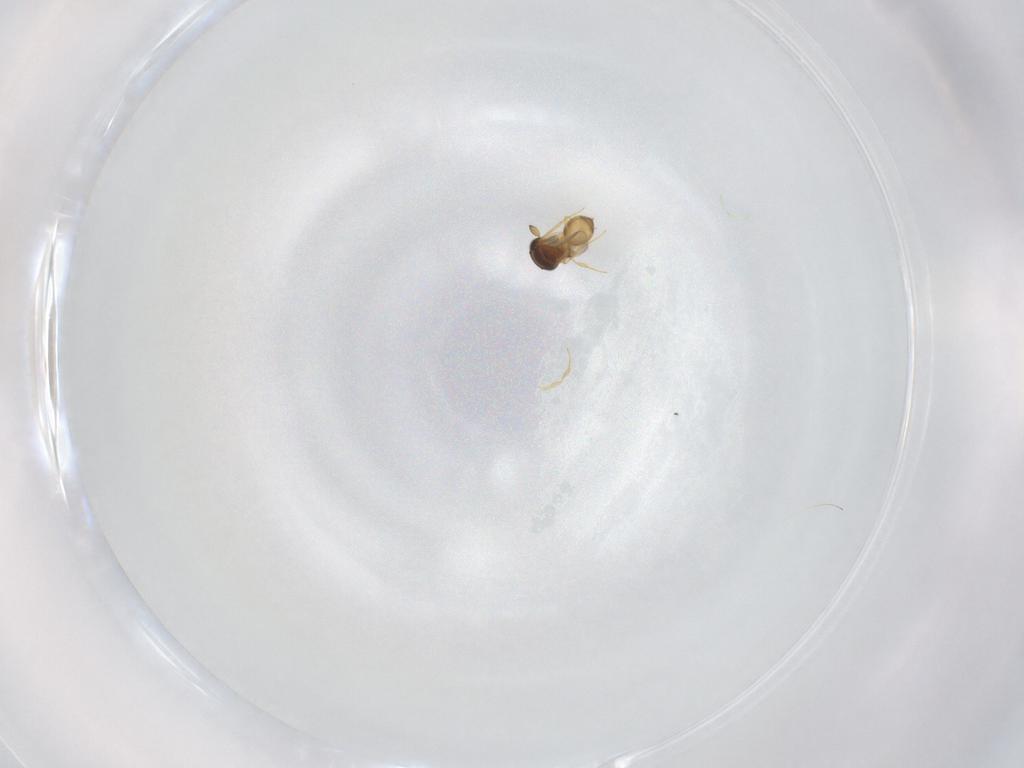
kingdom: Animalia
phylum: Arthropoda
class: Insecta
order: Hymenoptera
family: Scelionidae
